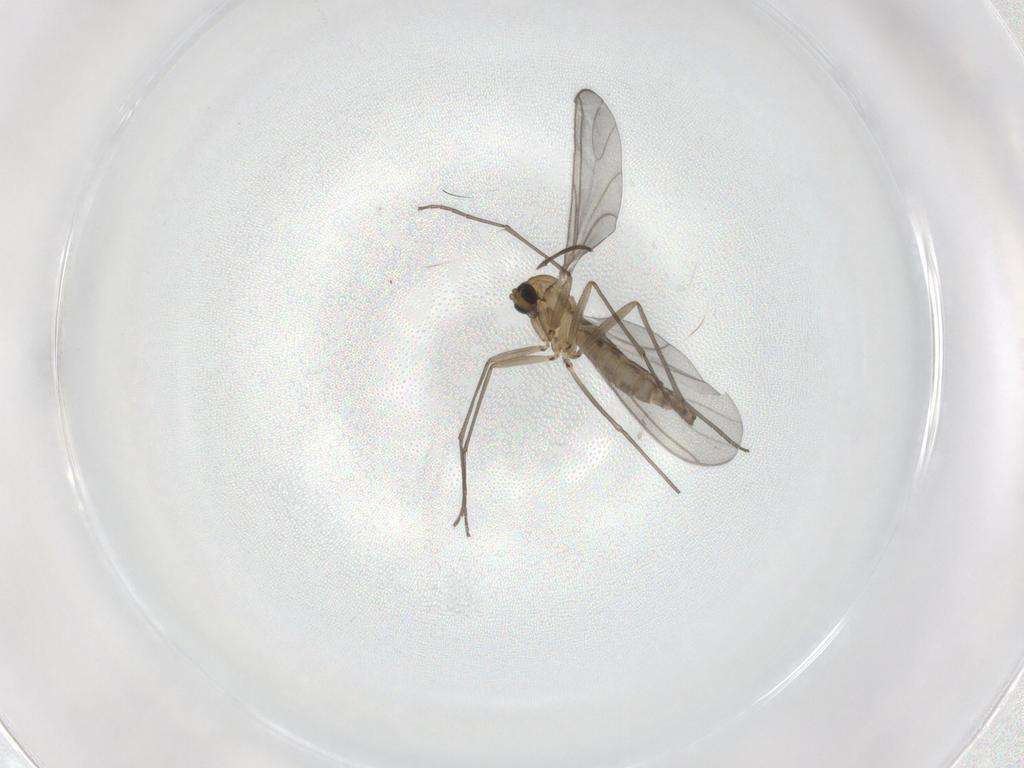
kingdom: Animalia
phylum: Arthropoda
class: Insecta
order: Diptera
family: Sciaridae
